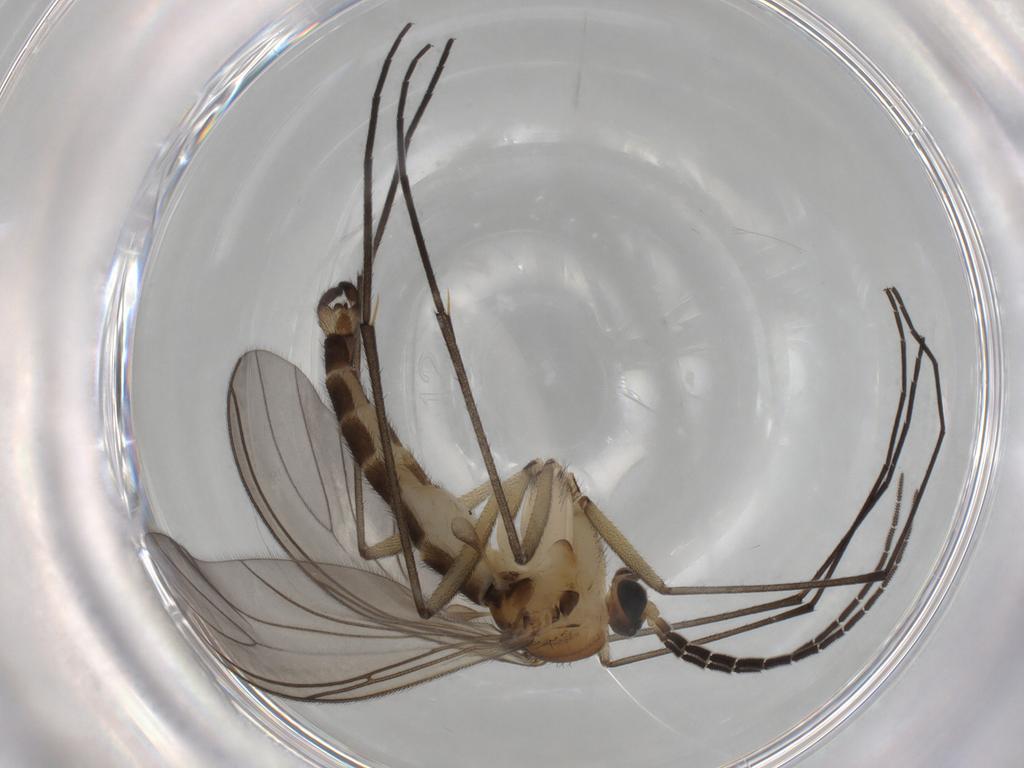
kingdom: Animalia
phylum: Arthropoda
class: Insecta
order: Diptera
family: Sciaridae
